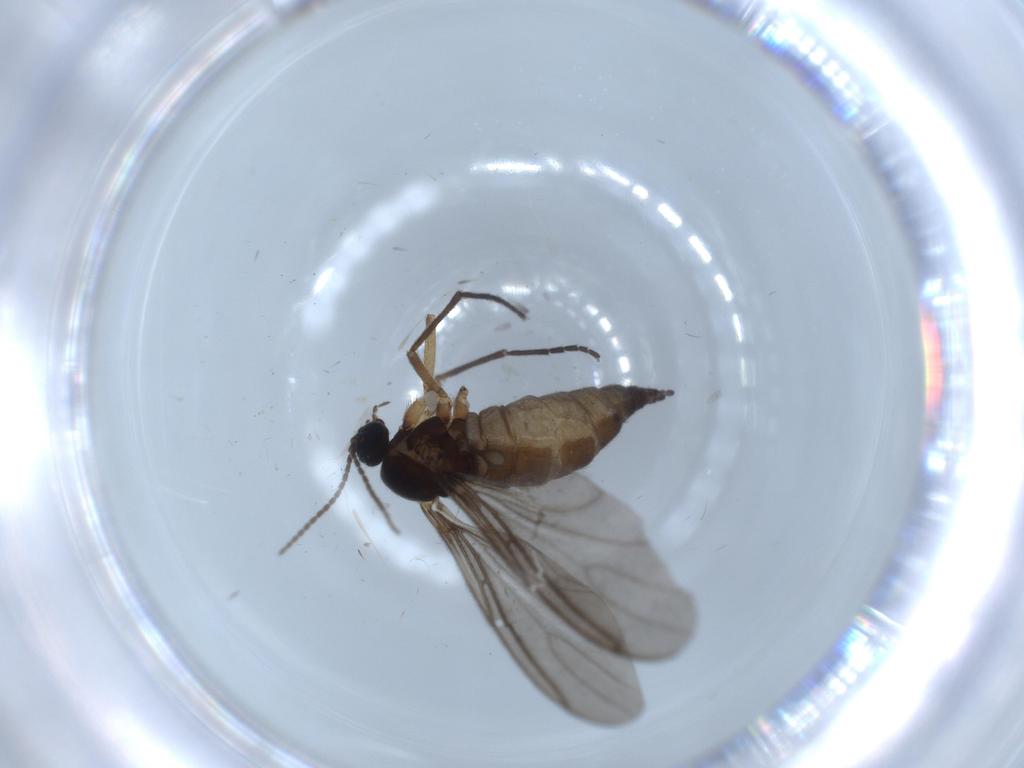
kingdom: Animalia
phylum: Arthropoda
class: Insecta
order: Diptera
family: Sciaridae
